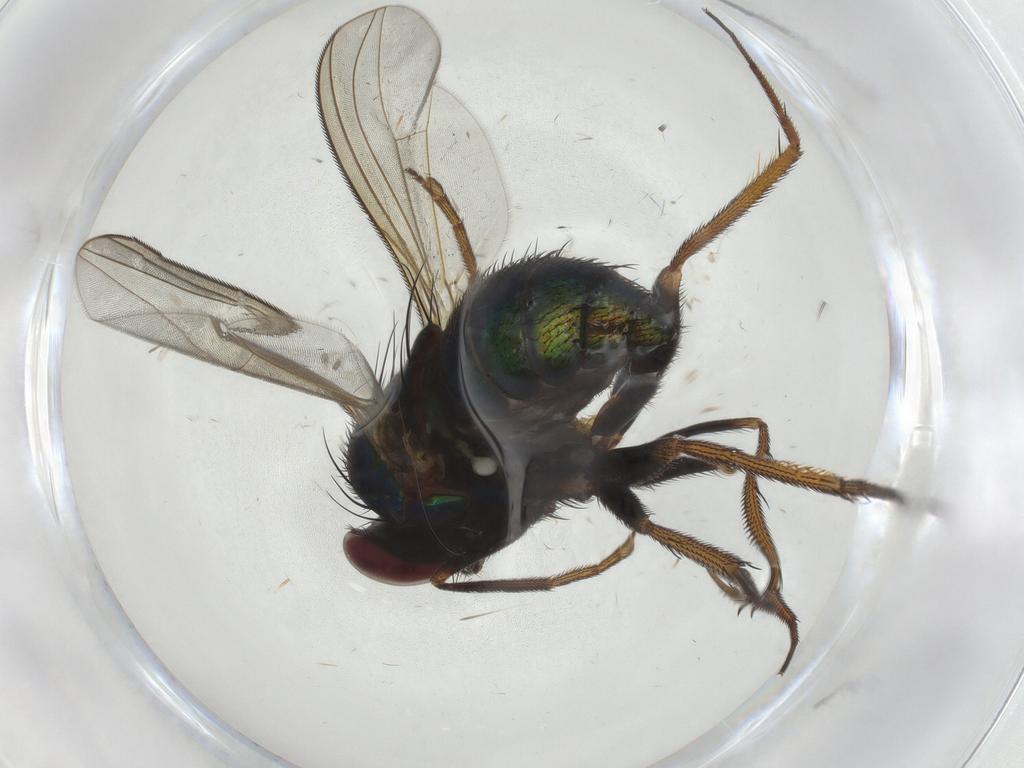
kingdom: Animalia
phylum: Arthropoda
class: Insecta
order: Diptera
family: Dolichopodidae
